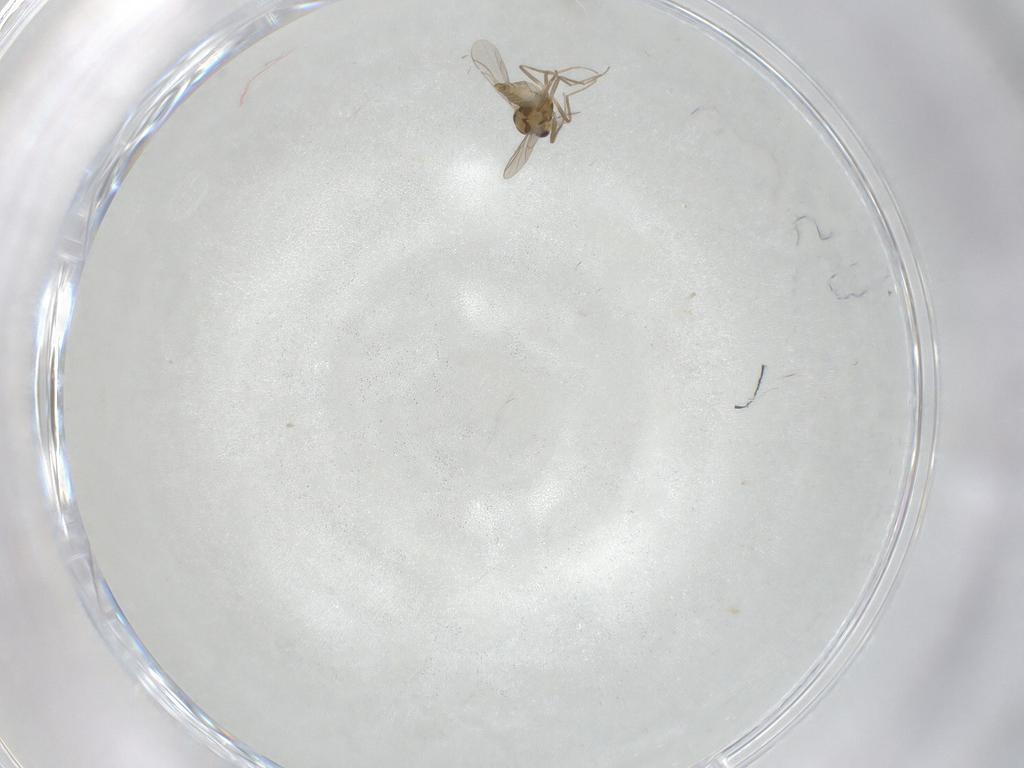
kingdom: Animalia
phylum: Arthropoda
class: Insecta
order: Diptera
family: Chironomidae
